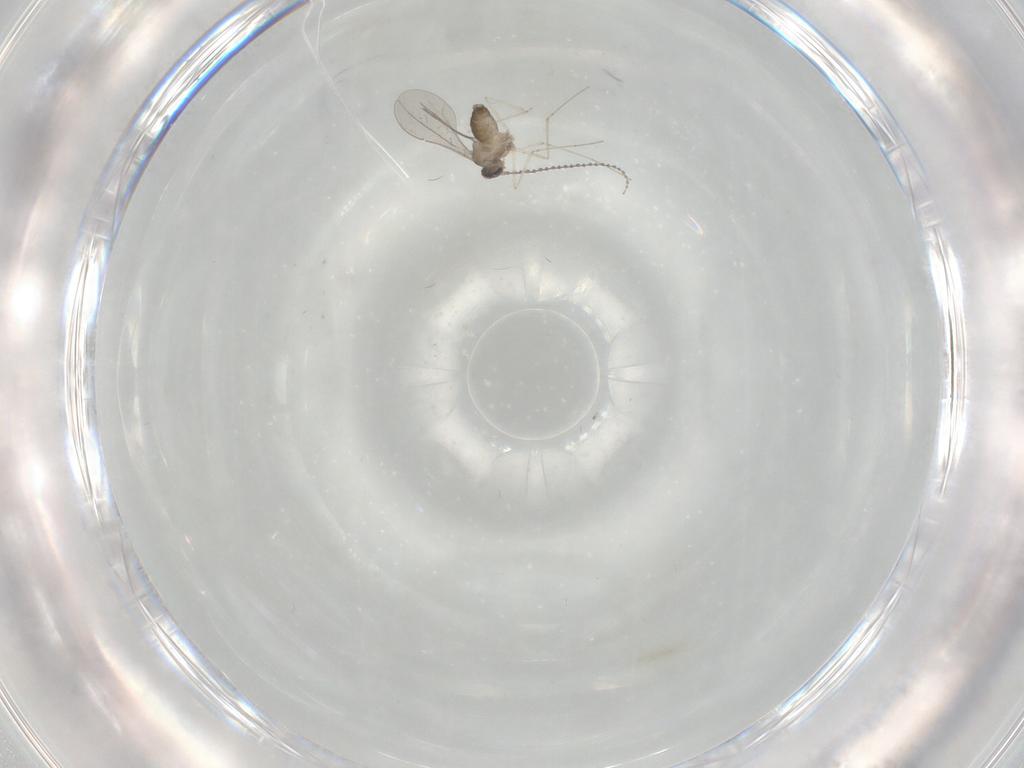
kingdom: Animalia
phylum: Arthropoda
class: Insecta
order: Diptera
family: Cecidomyiidae
